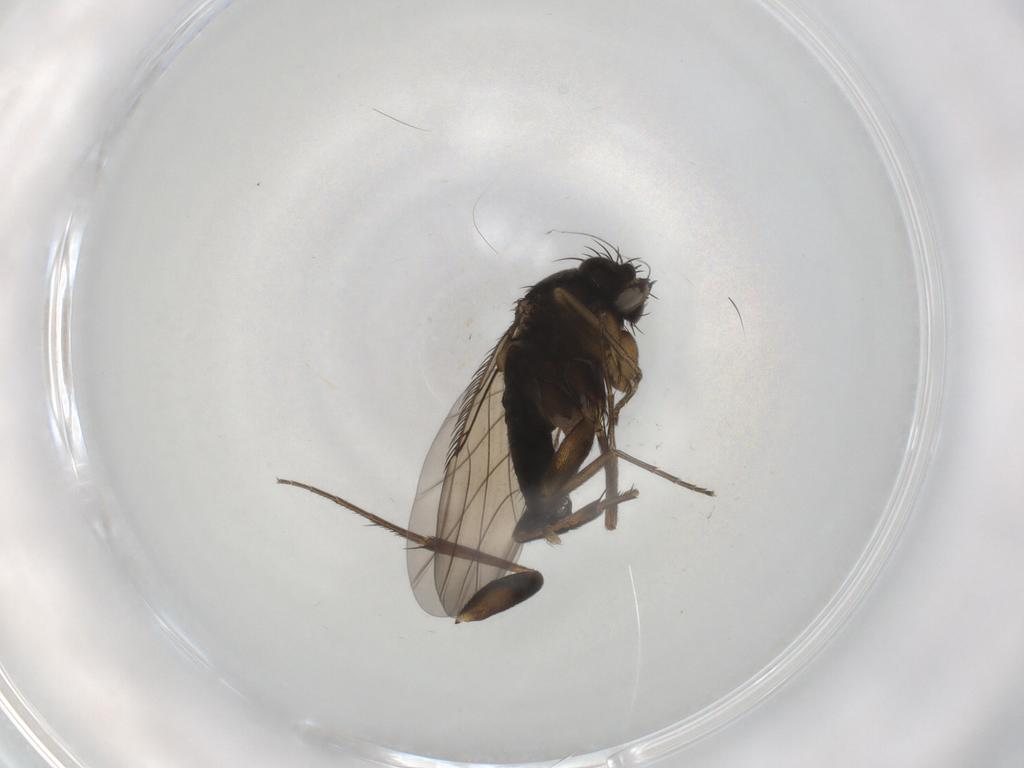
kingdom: Animalia
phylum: Arthropoda
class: Insecta
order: Diptera
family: Phoridae
